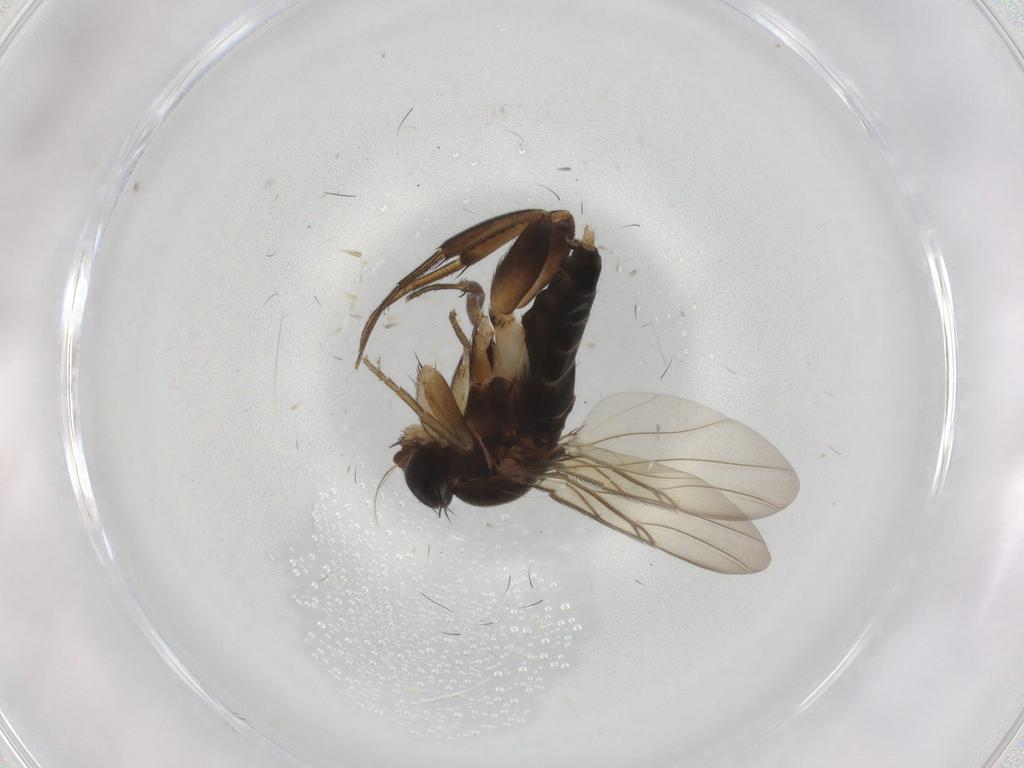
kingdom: Animalia
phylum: Arthropoda
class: Insecta
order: Diptera
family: Phoridae
